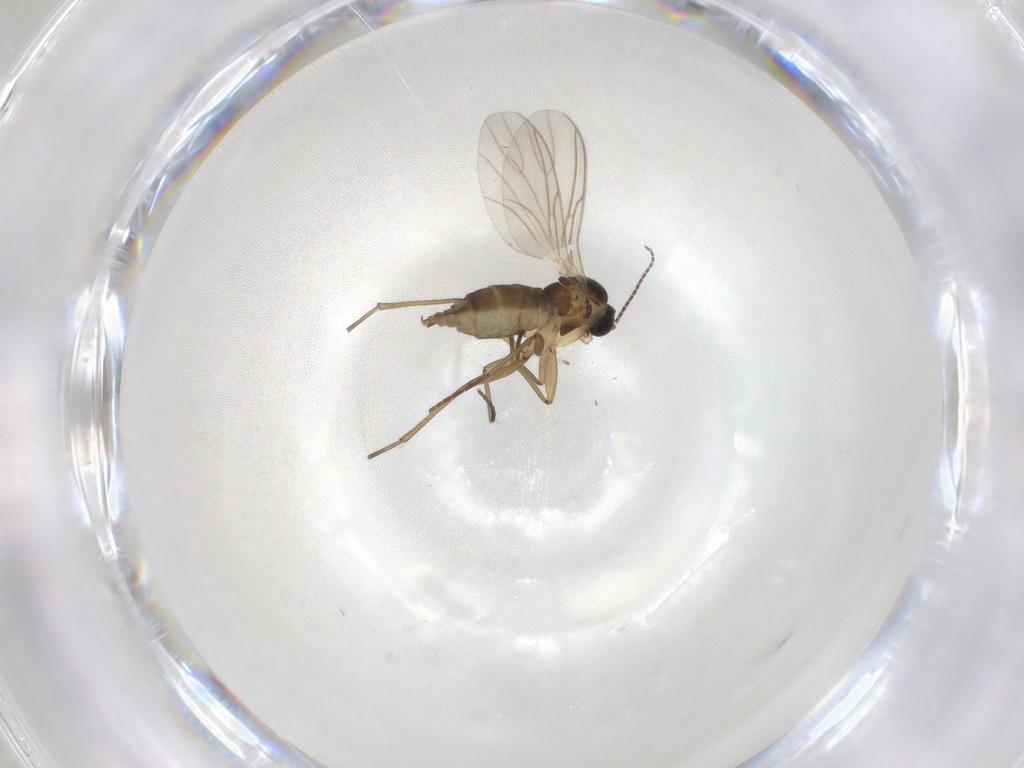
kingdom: Animalia
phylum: Arthropoda
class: Insecta
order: Diptera
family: Cecidomyiidae
